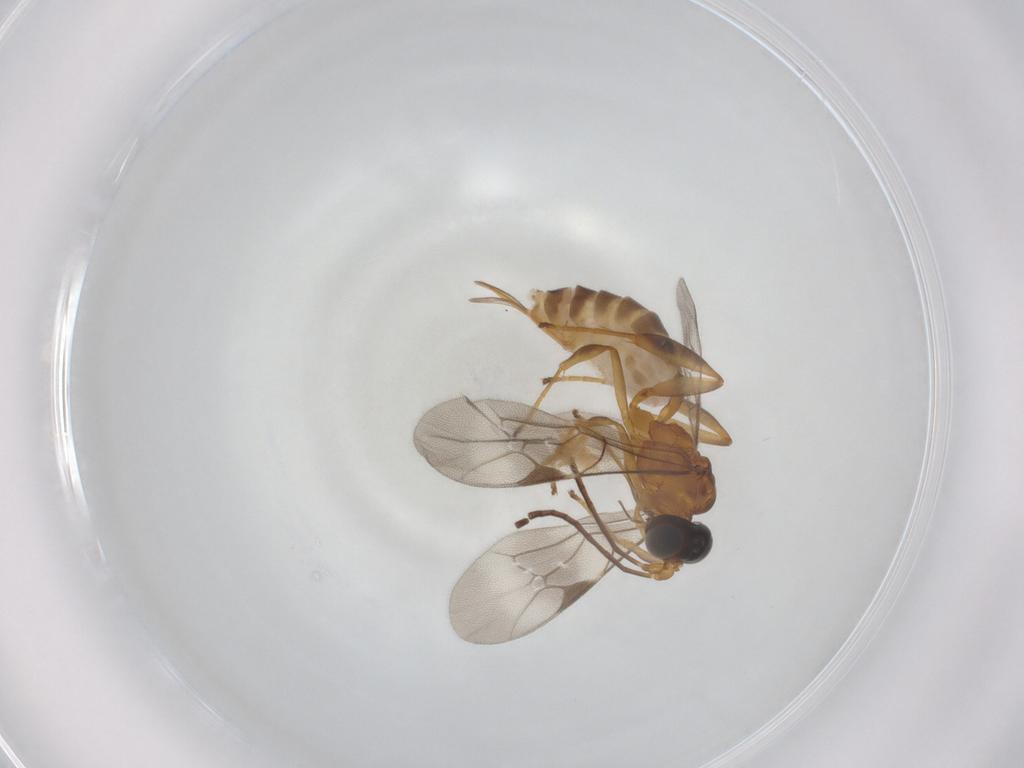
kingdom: Animalia
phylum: Arthropoda
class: Insecta
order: Hymenoptera
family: Ichneumonidae
